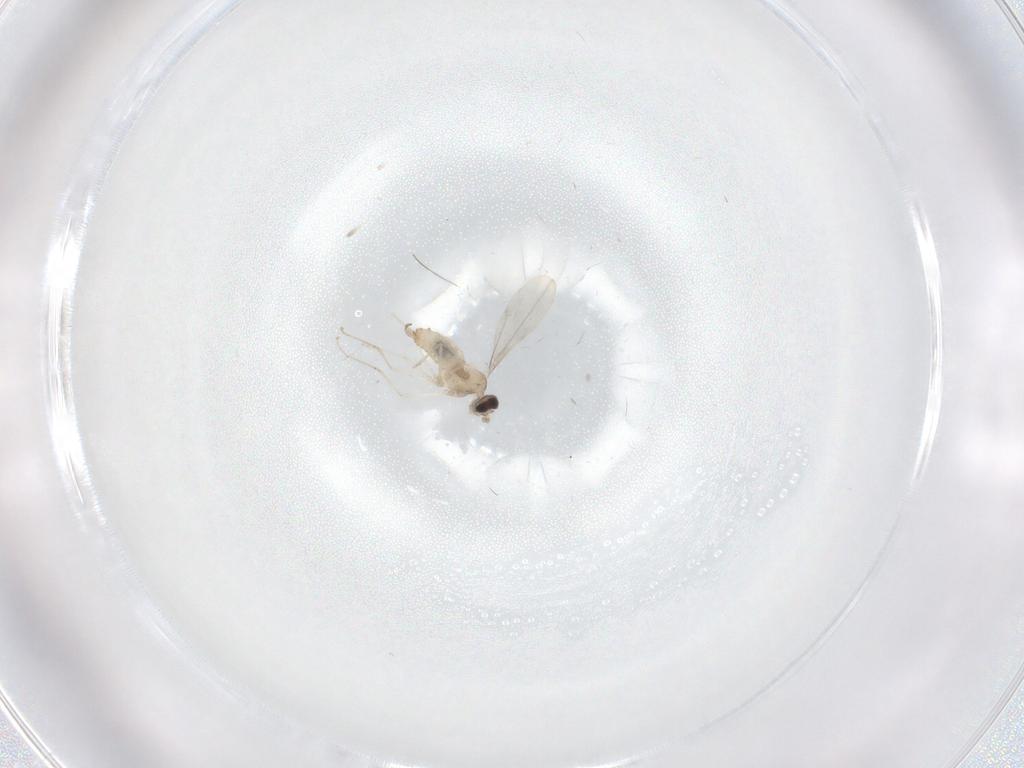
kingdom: Animalia
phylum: Arthropoda
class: Insecta
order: Diptera
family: Cecidomyiidae
